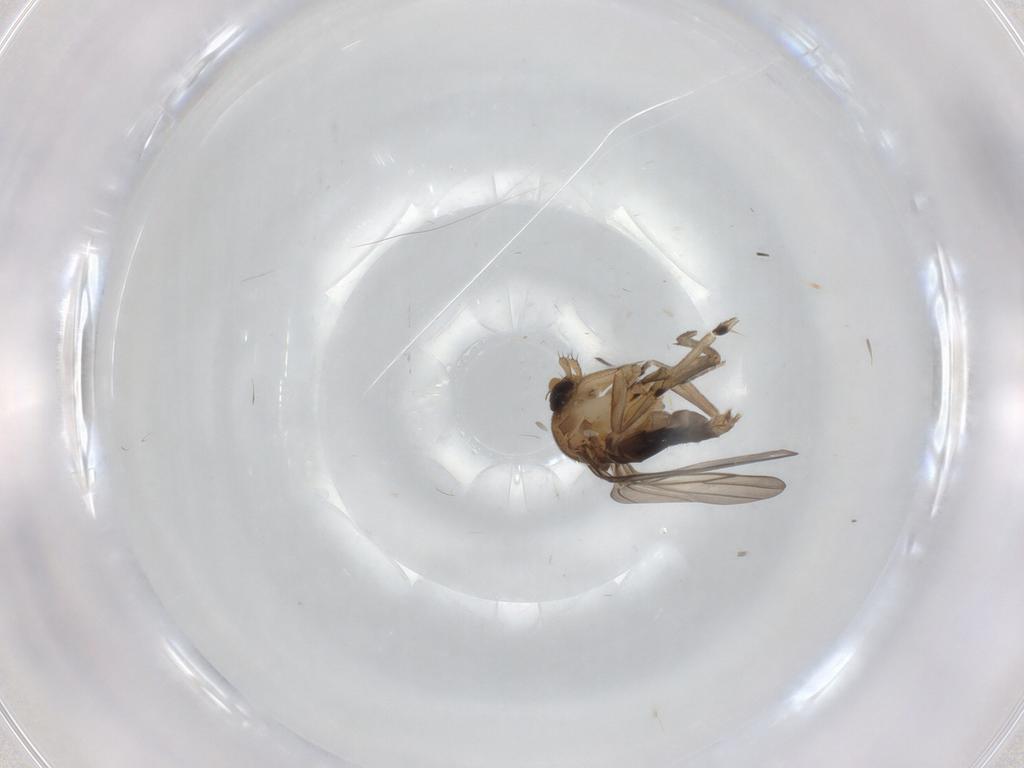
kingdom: Animalia
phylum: Arthropoda
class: Insecta
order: Diptera
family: Phoridae
